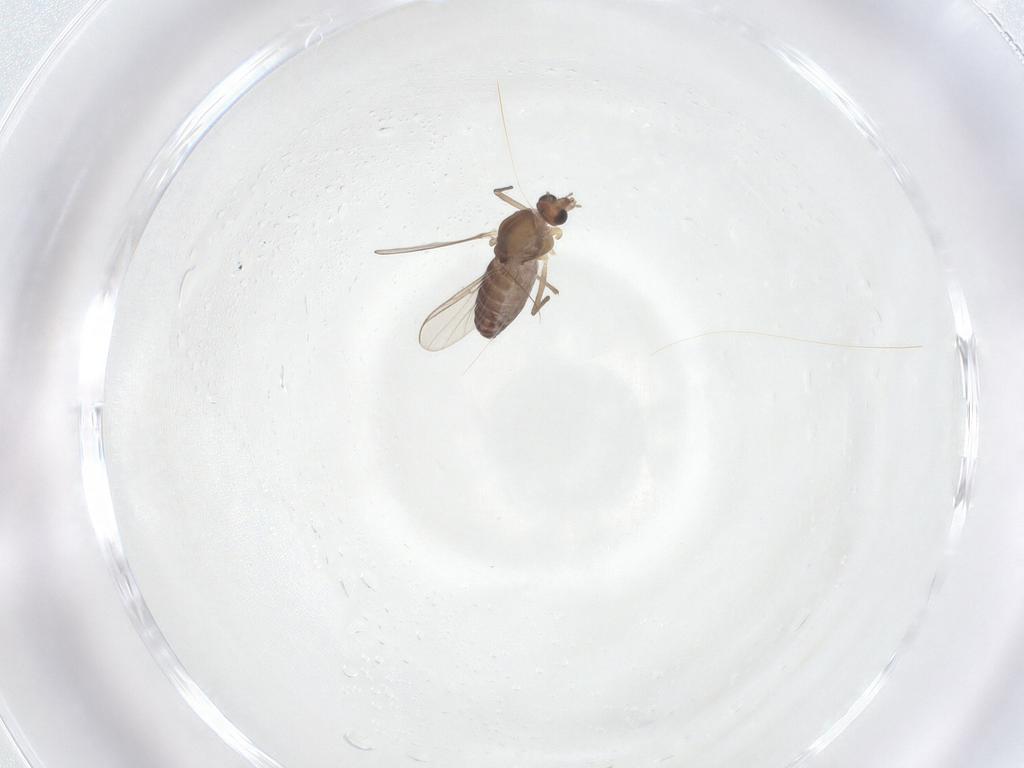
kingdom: Animalia
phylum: Arthropoda
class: Insecta
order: Diptera
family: Chironomidae
